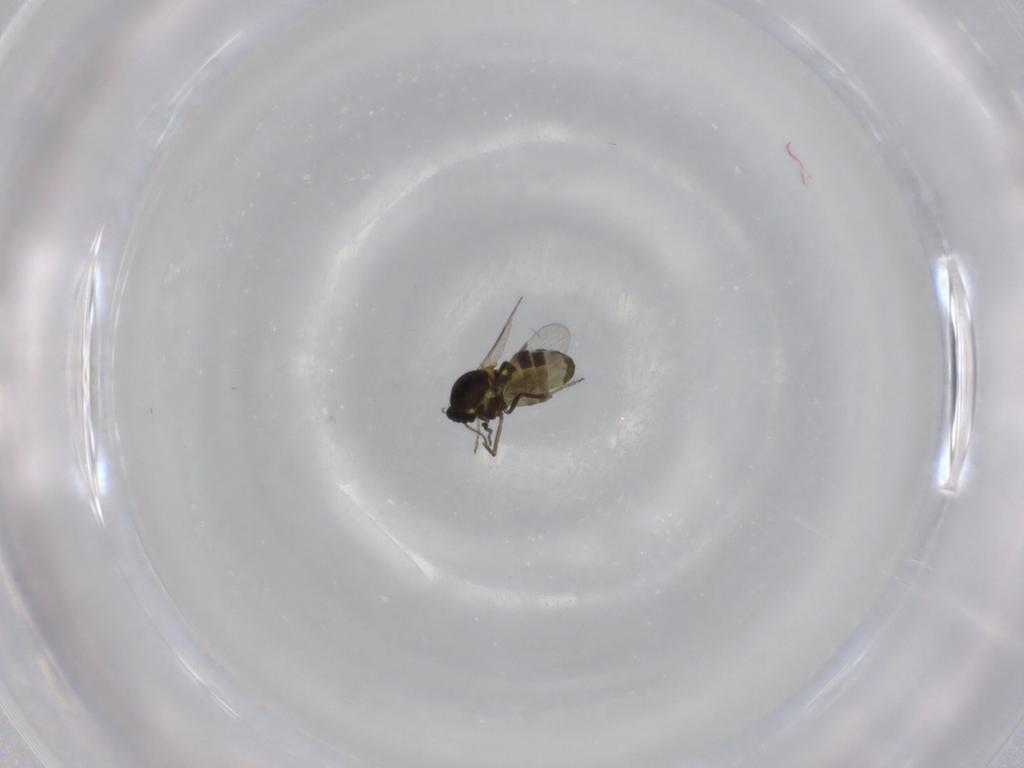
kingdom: Animalia
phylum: Arthropoda
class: Insecta
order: Diptera
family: Ceratopogonidae
